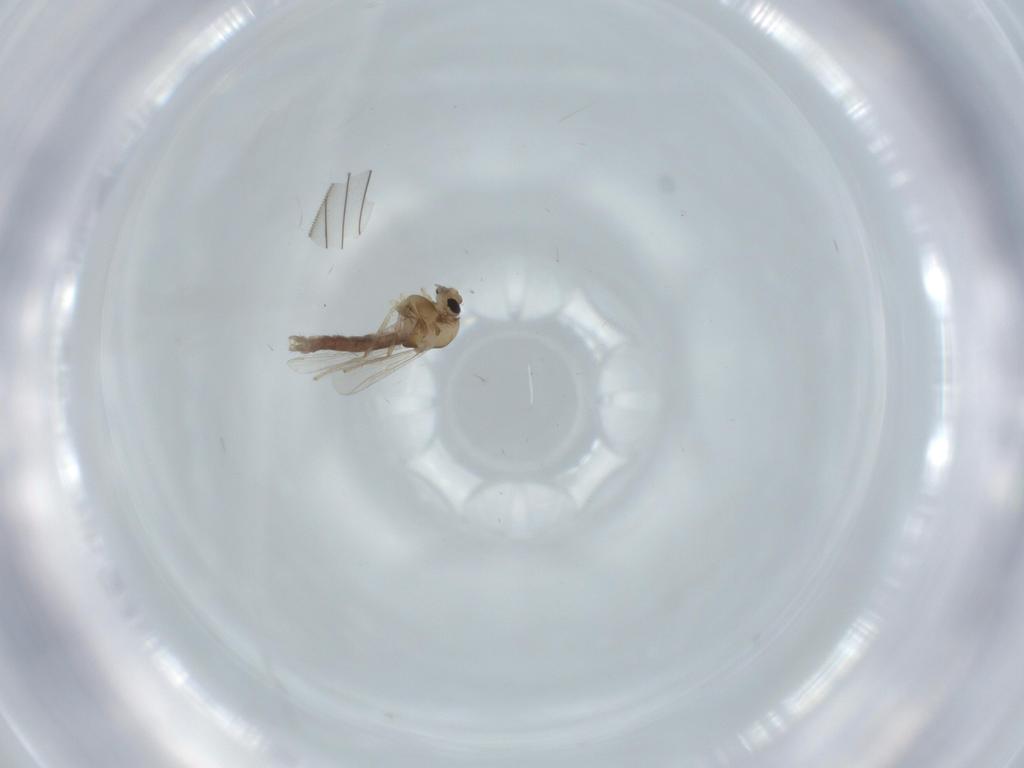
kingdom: Animalia
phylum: Arthropoda
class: Insecta
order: Diptera
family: Chironomidae
